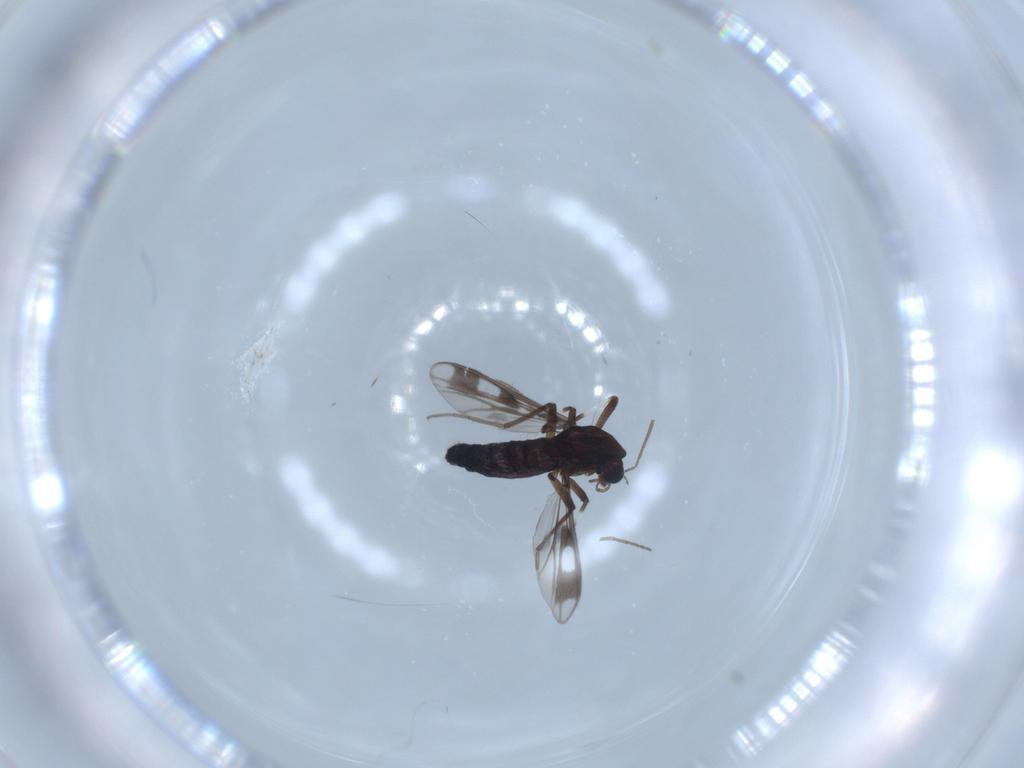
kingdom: Animalia
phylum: Arthropoda
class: Insecta
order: Diptera
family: Chironomidae
